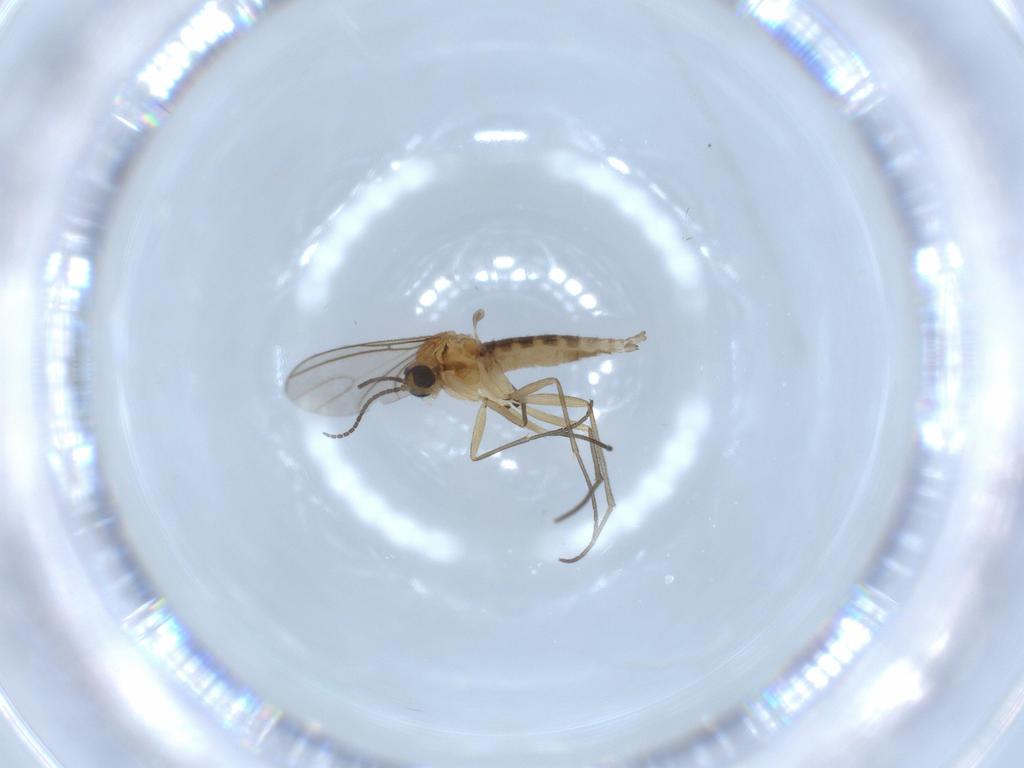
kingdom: Animalia
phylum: Arthropoda
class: Insecta
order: Diptera
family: Sciaridae
